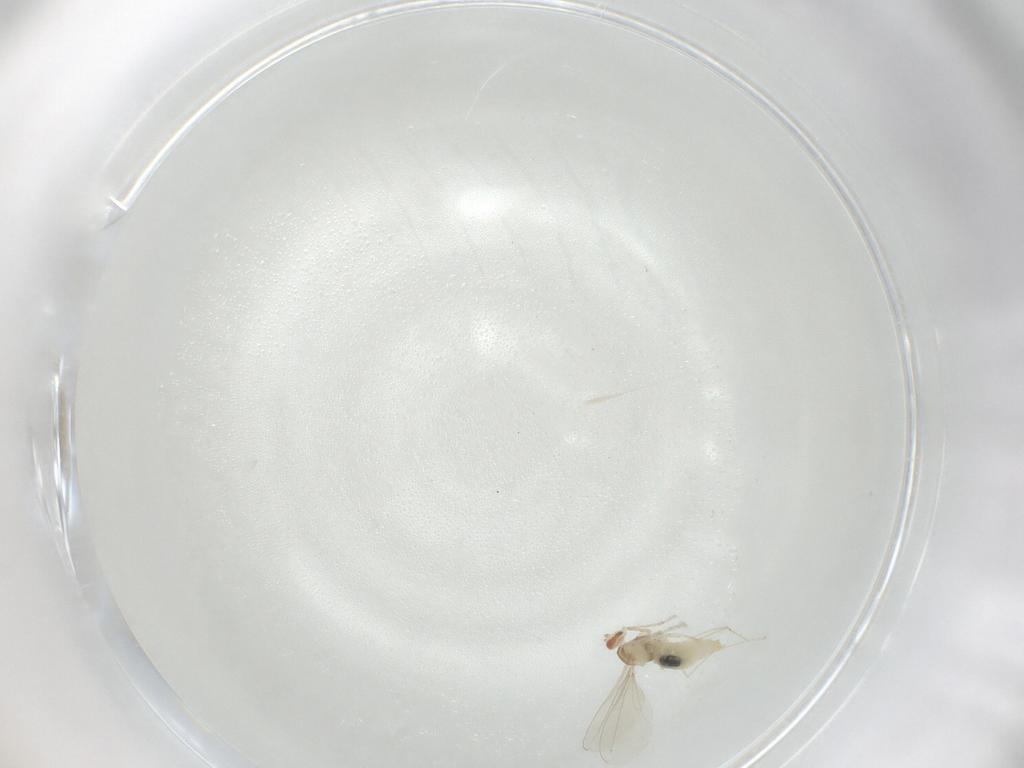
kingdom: Animalia
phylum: Arthropoda
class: Insecta
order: Diptera
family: Cecidomyiidae
